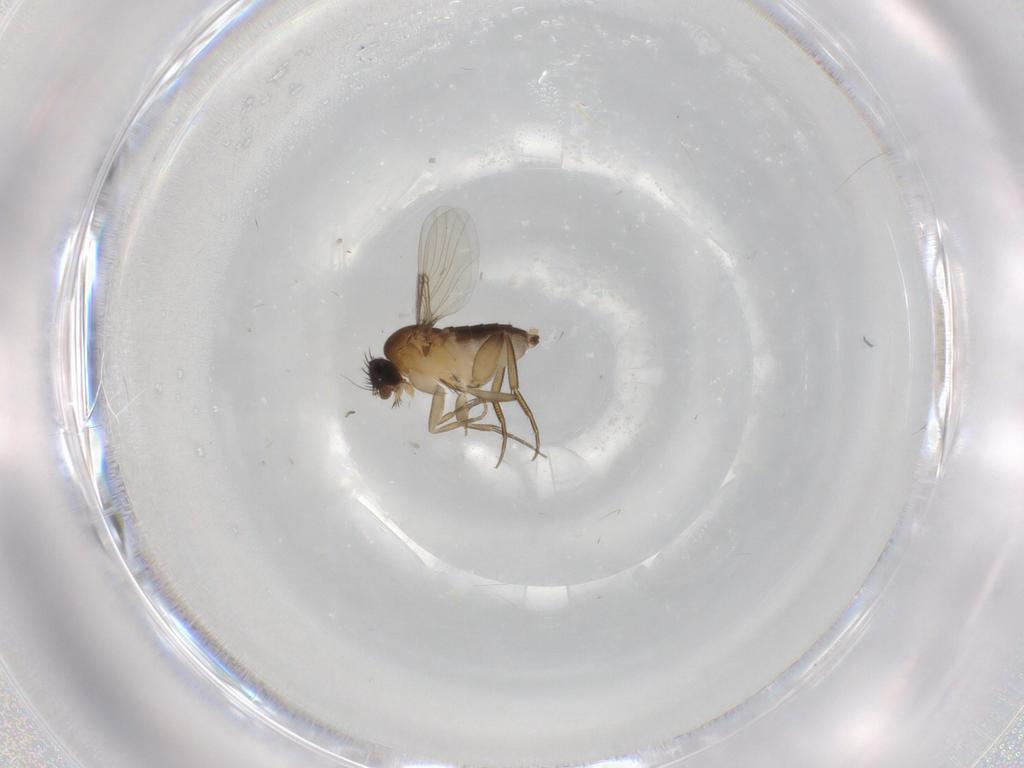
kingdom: Animalia
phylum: Arthropoda
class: Insecta
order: Diptera
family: Phoridae
